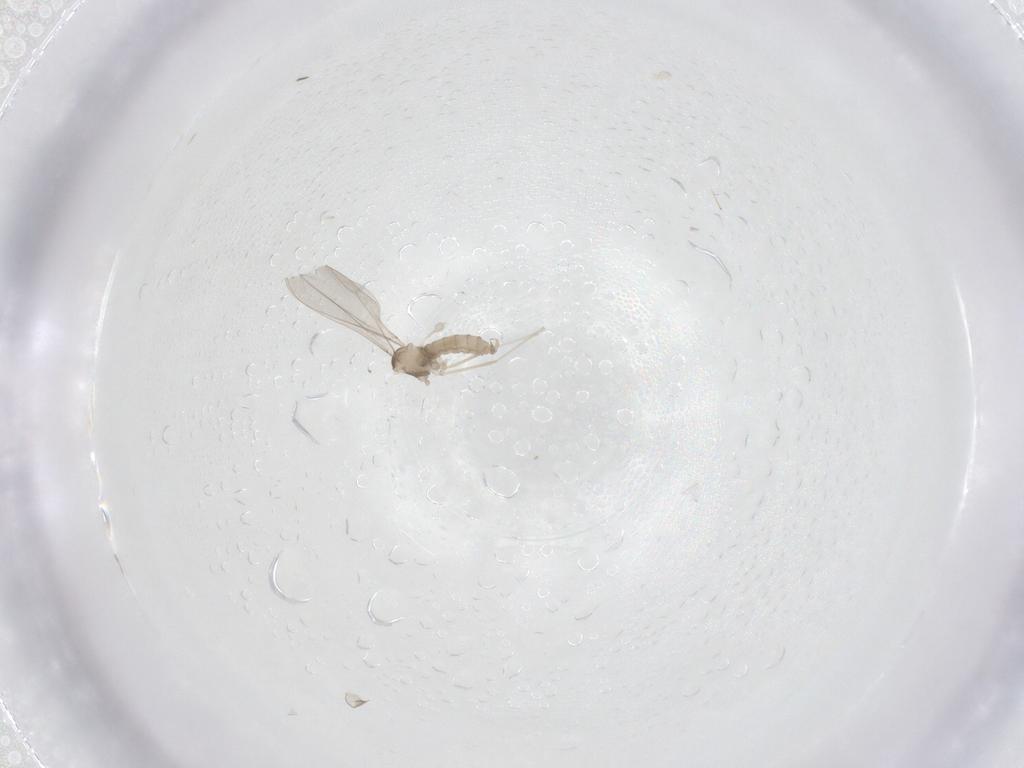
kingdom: Animalia
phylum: Arthropoda
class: Insecta
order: Diptera
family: Cecidomyiidae
